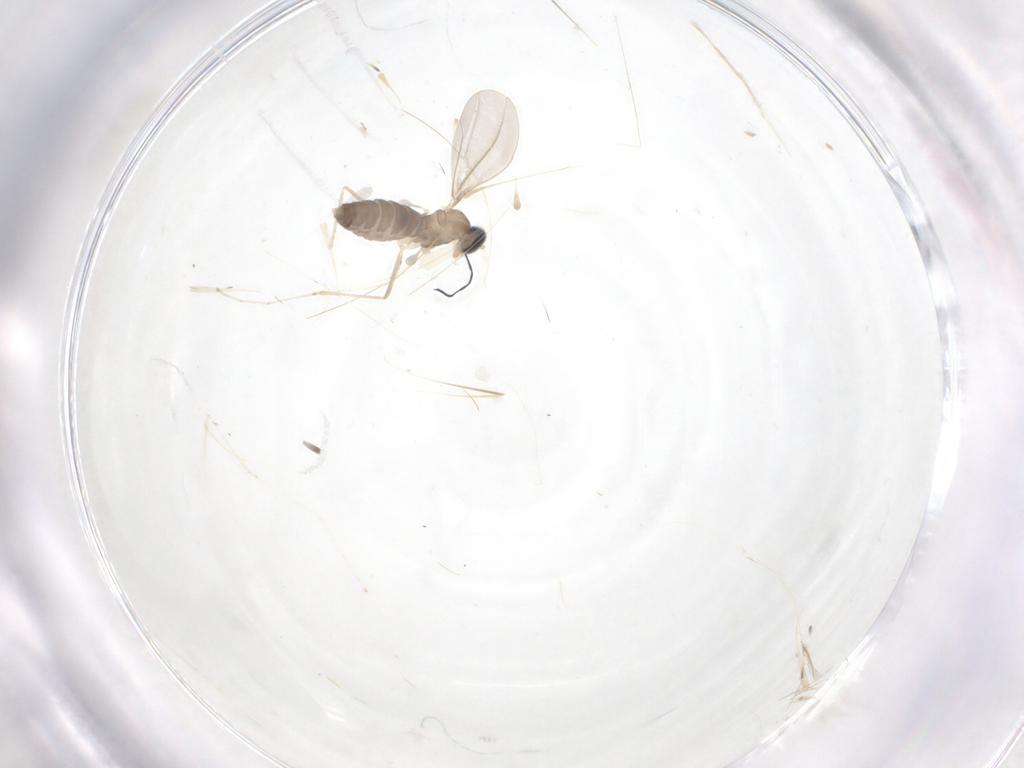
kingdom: Animalia
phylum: Arthropoda
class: Insecta
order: Diptera
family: Cecidomyiidae
